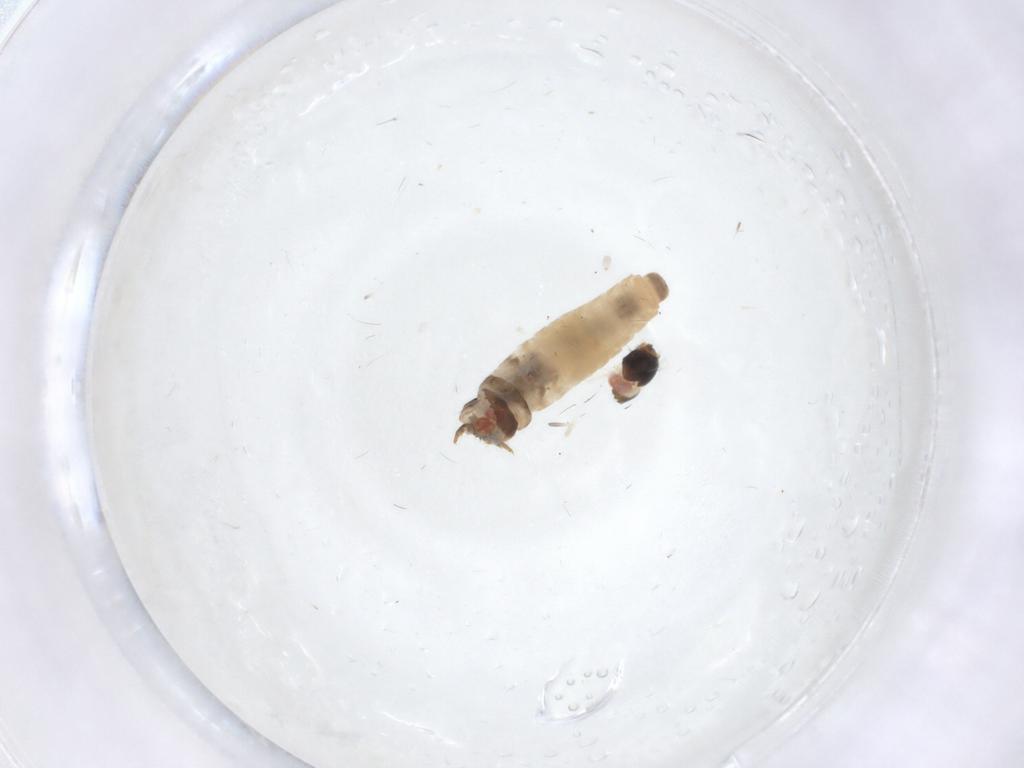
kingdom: Animalia
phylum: Arthropoda
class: Insecta
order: Lepidoptera
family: Psychidae
